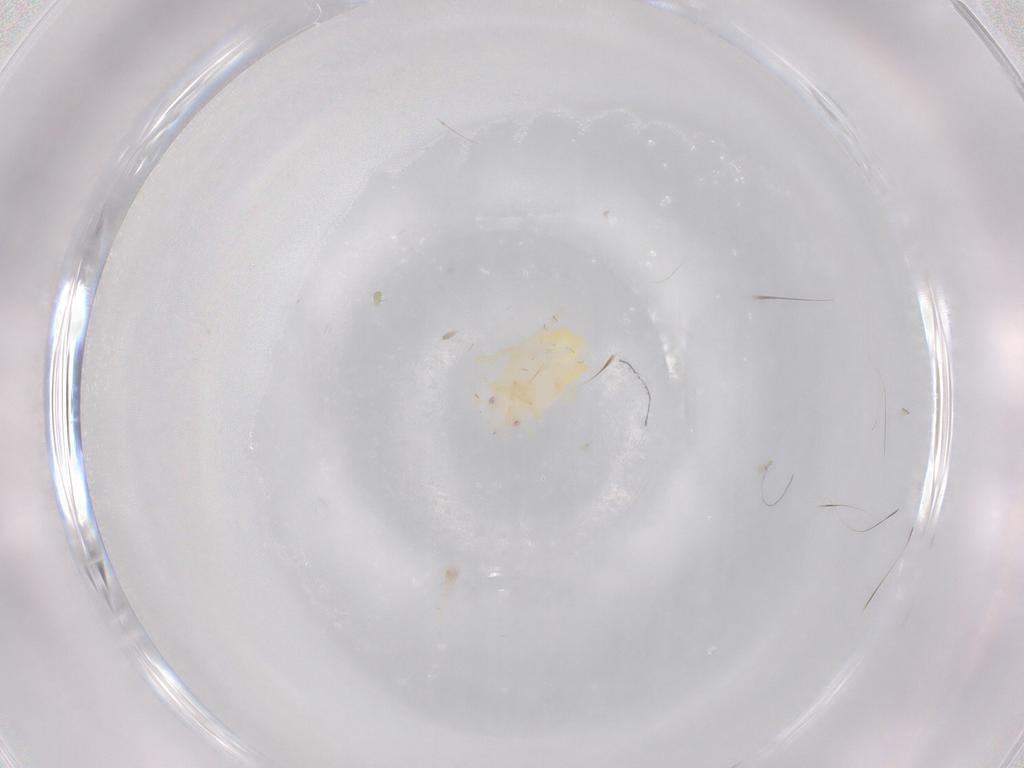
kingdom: Animalia
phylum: Arthropoda
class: Insecta
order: Hemiptera
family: Flatidae
